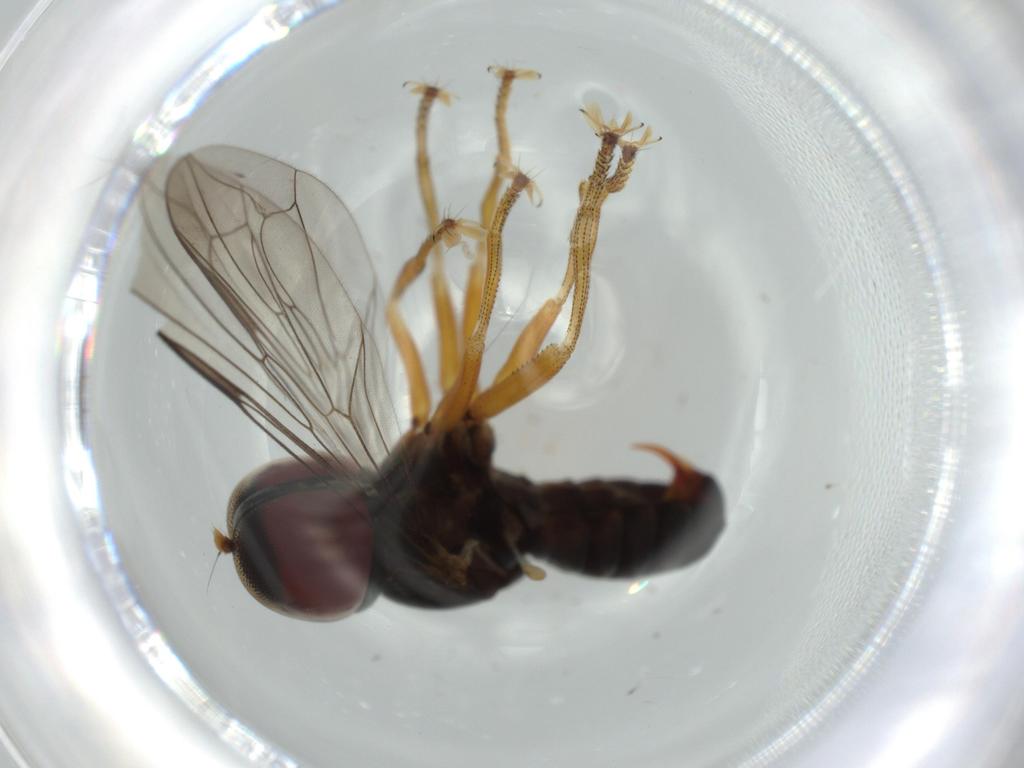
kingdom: Animalia
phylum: Arthropoda
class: Insecta
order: Diptera
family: Pipunculidae
